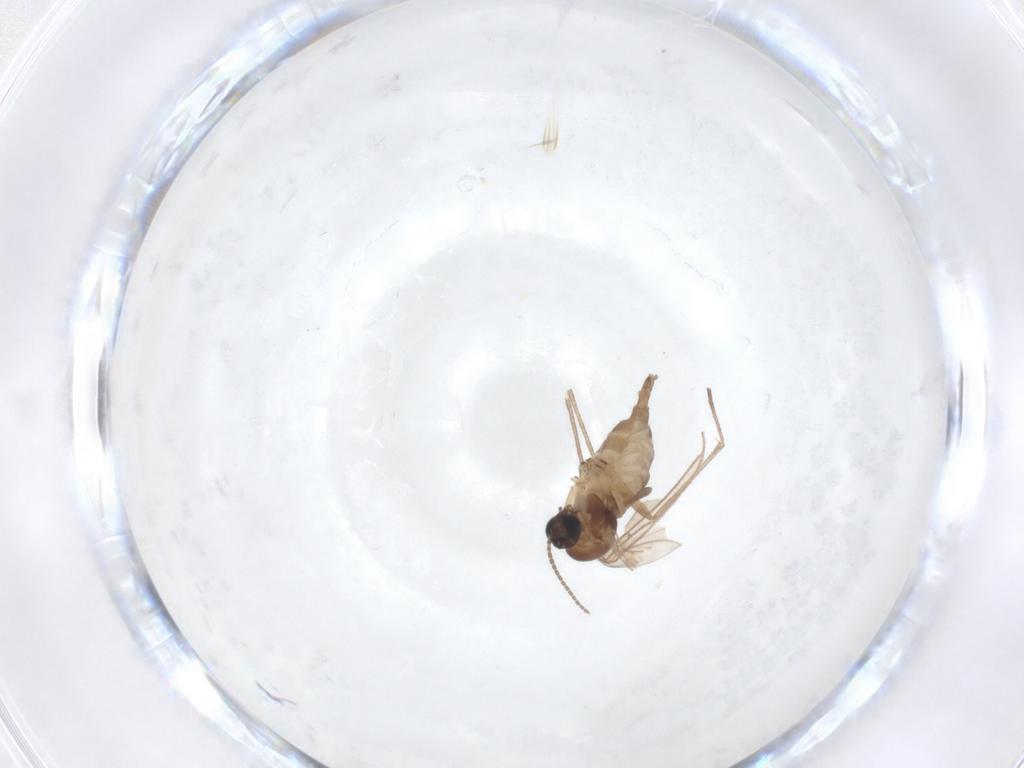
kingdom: Animalia
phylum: Arthropoda
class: Insecta
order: Diptera
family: Sciaridae
